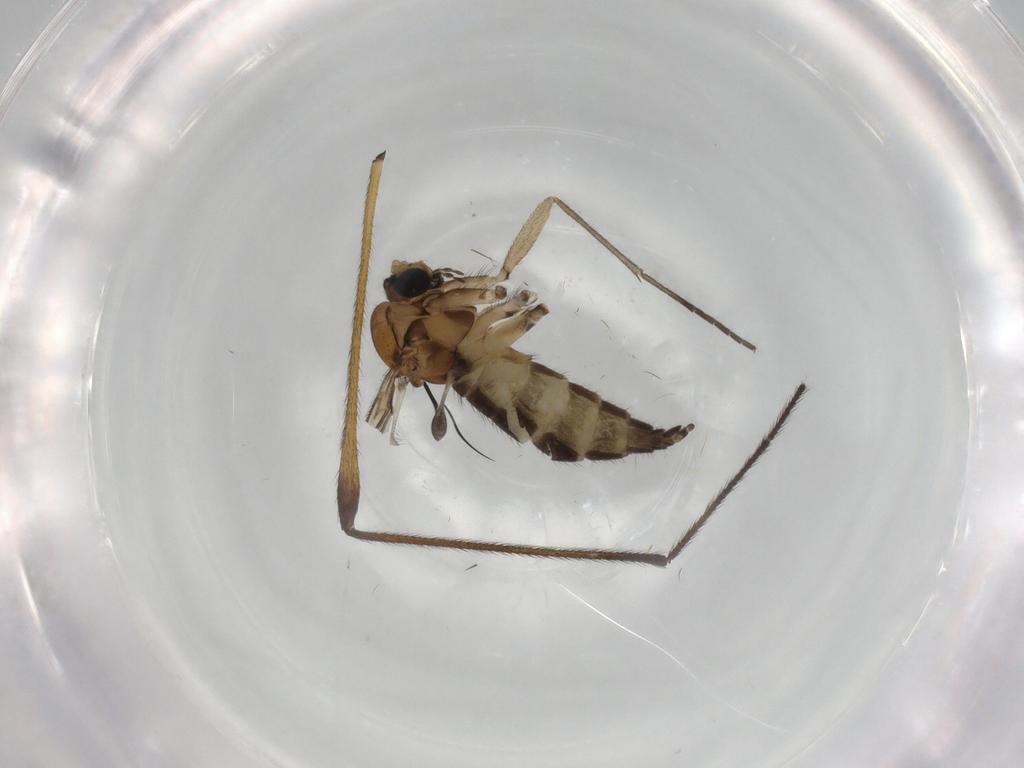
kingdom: Animalia
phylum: Arthropoda
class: Insecta
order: Diptera
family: Sciaridae
